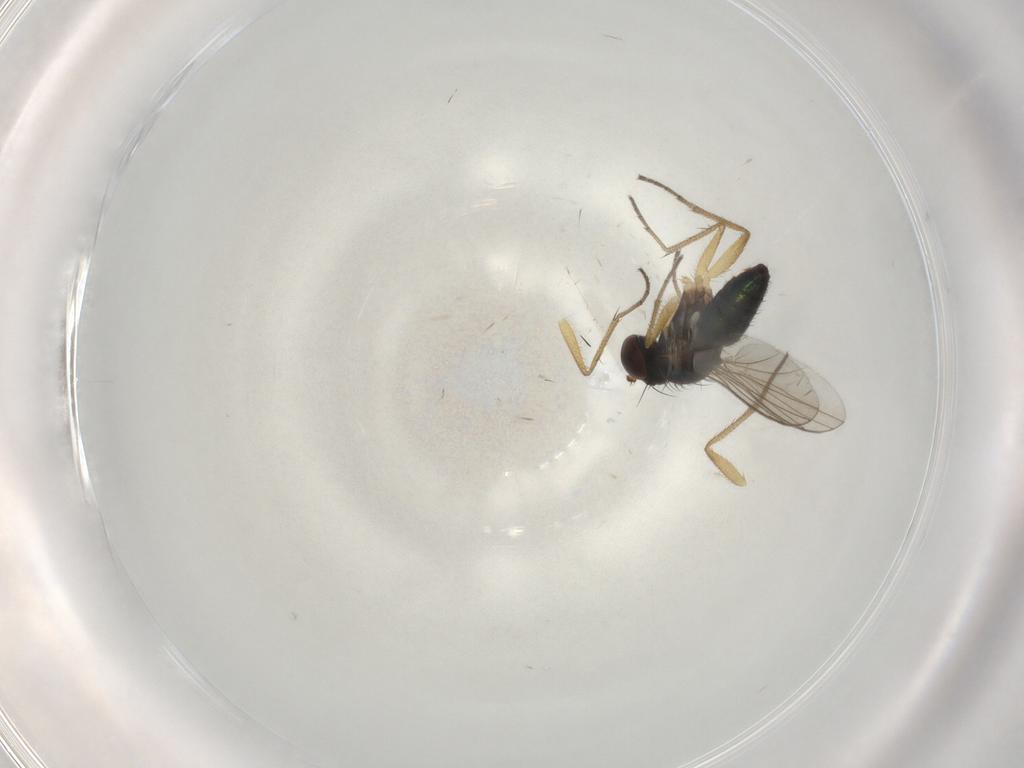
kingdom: Animalia
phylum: Arthropoda
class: Insecta
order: Diptera
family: Dolichopodidae
